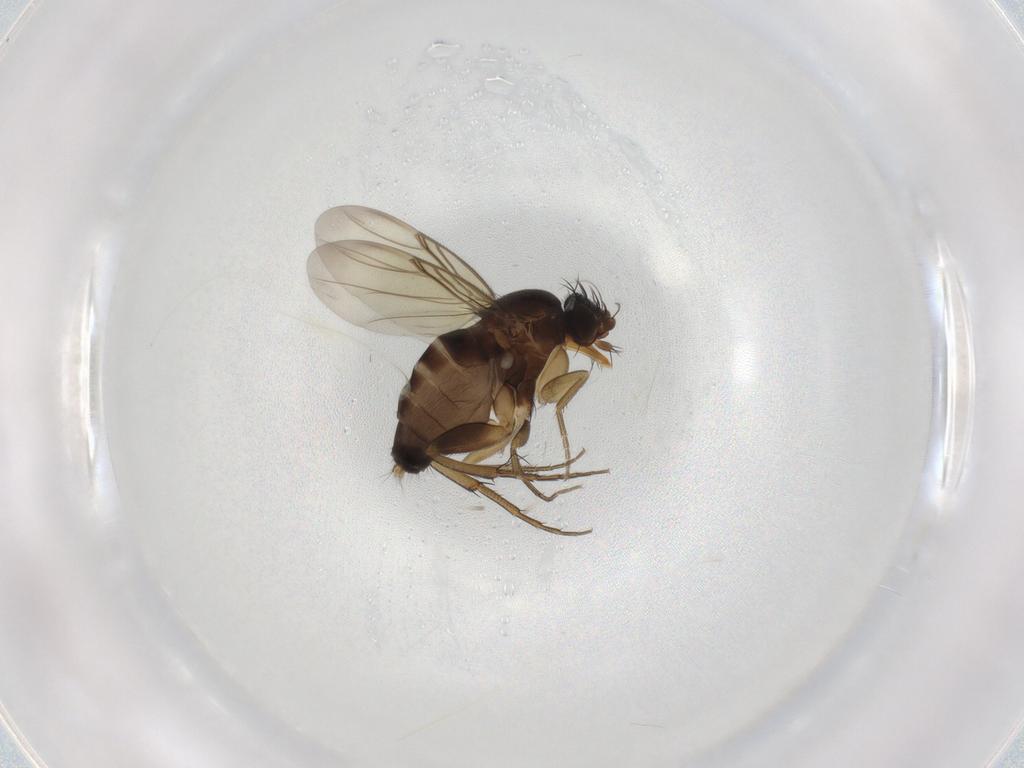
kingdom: Animalia
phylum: Arthropoda
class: Insecta
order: Diptera
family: Phoridae
